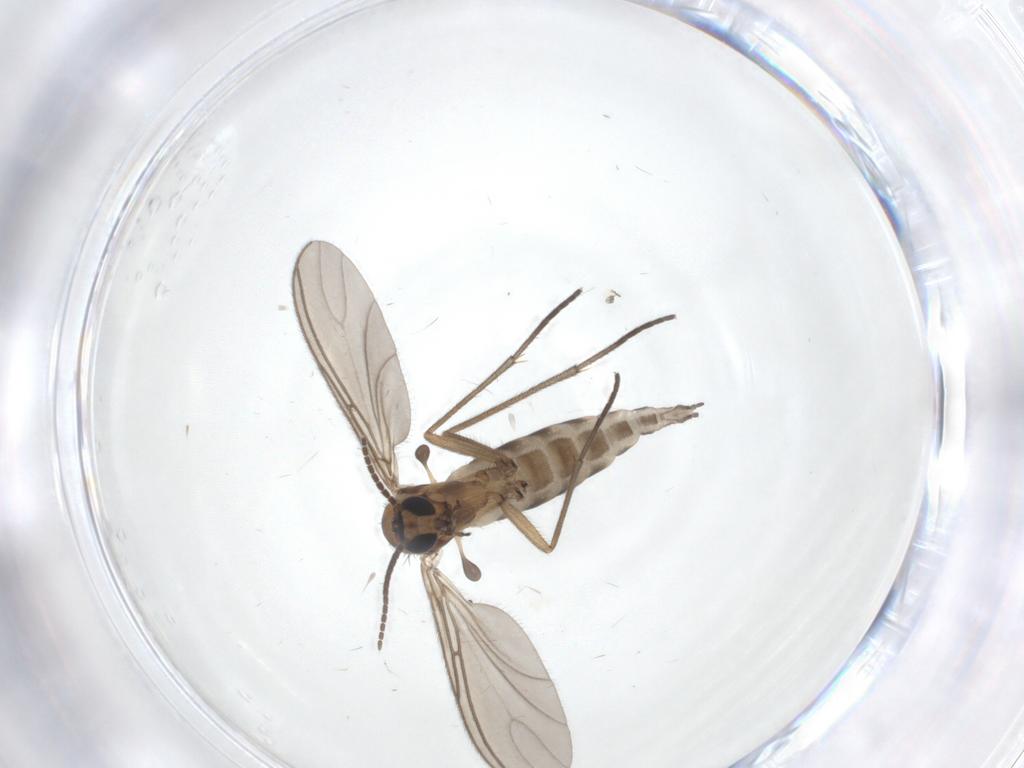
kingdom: Animalia
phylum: Arthropoda
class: Insecta
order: Diptera
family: Sciaridae
